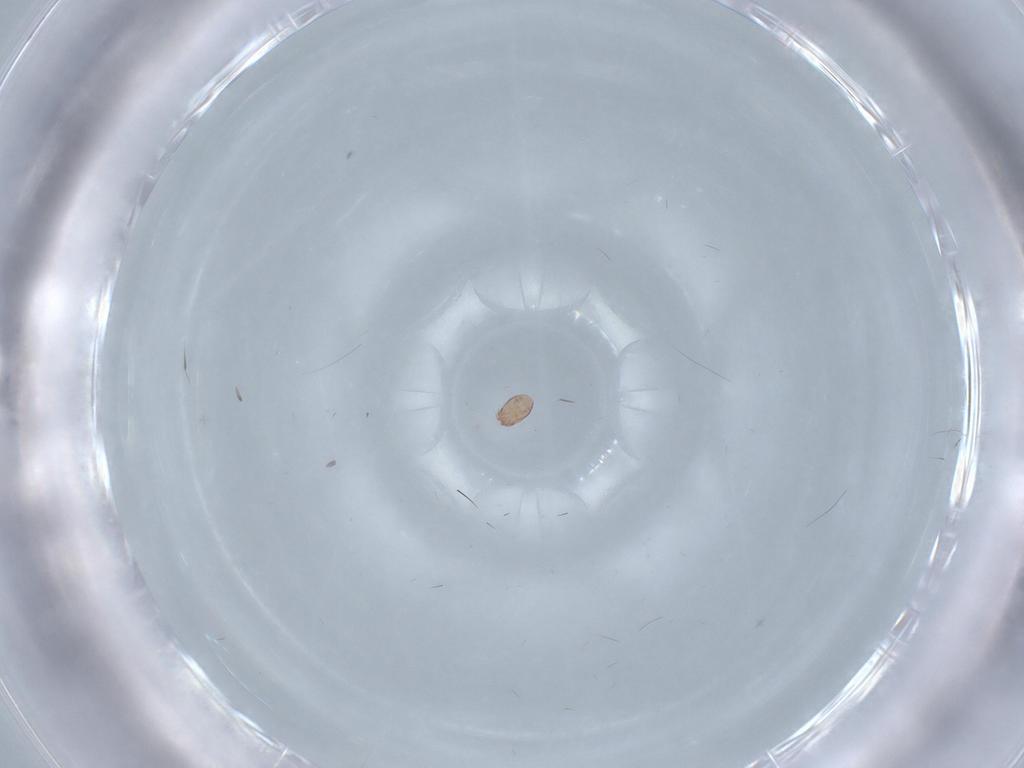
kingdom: Animalia
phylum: Arthropoda
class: Arachnida
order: Sarcoptiformes
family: Acaridae
